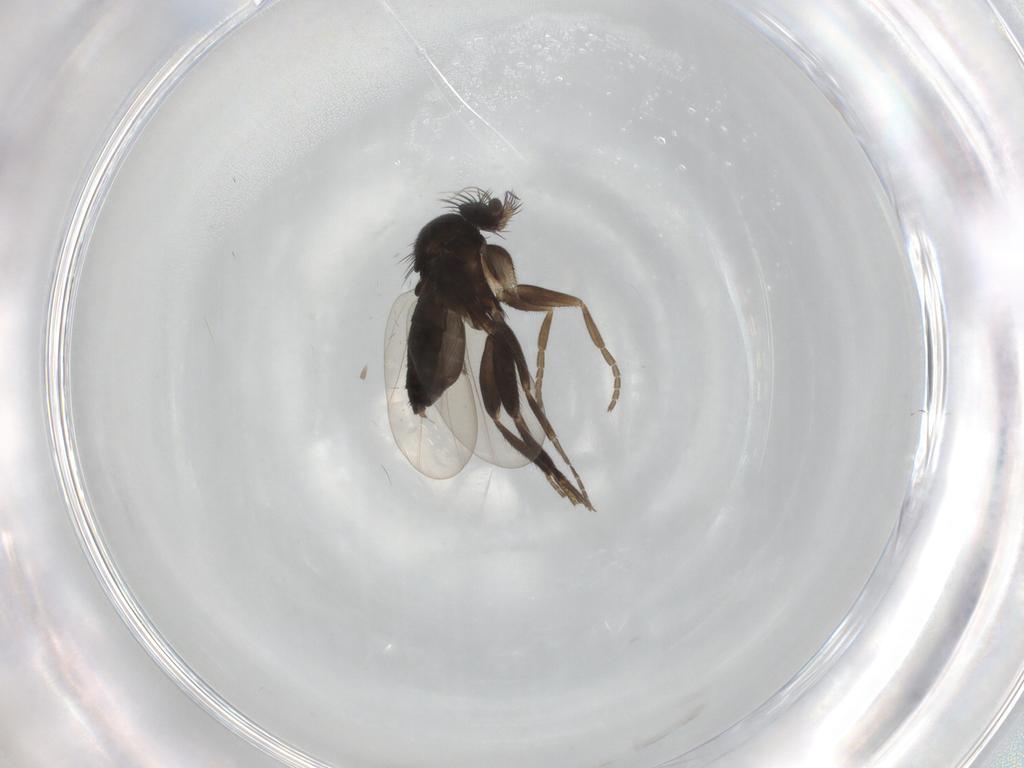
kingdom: Animalia
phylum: Arthropoda
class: Insecta
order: Diptera
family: Phoridae
